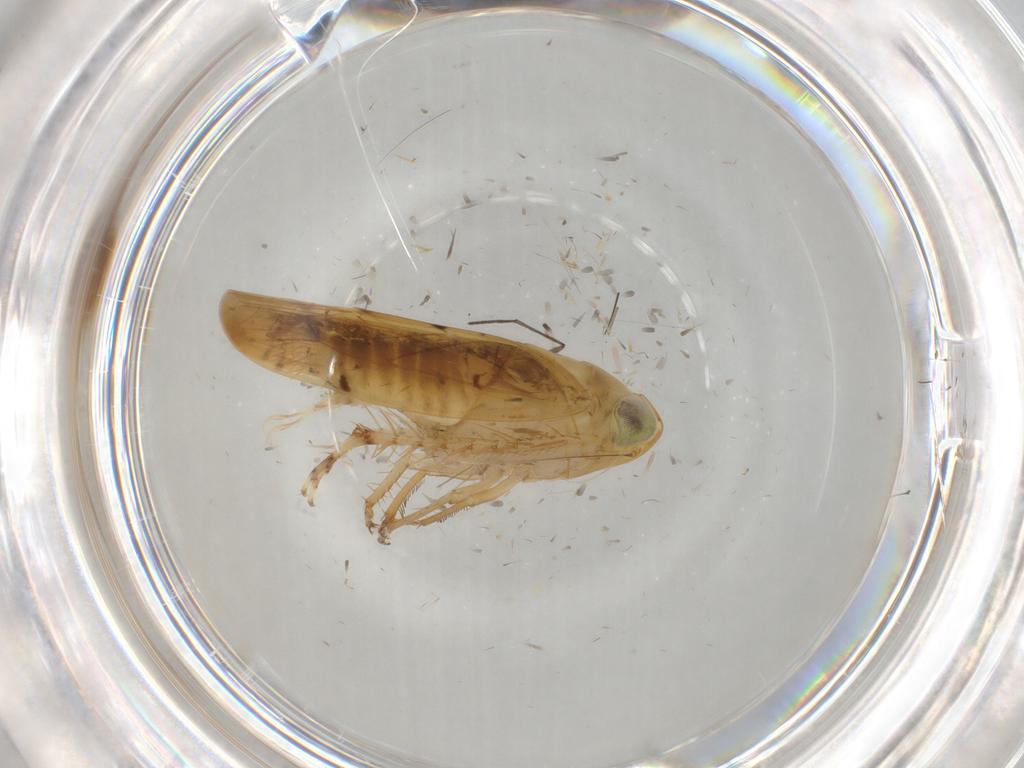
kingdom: Animalia
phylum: Arthropoda
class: Insecta
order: Hemiptera
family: Cicadellidae
